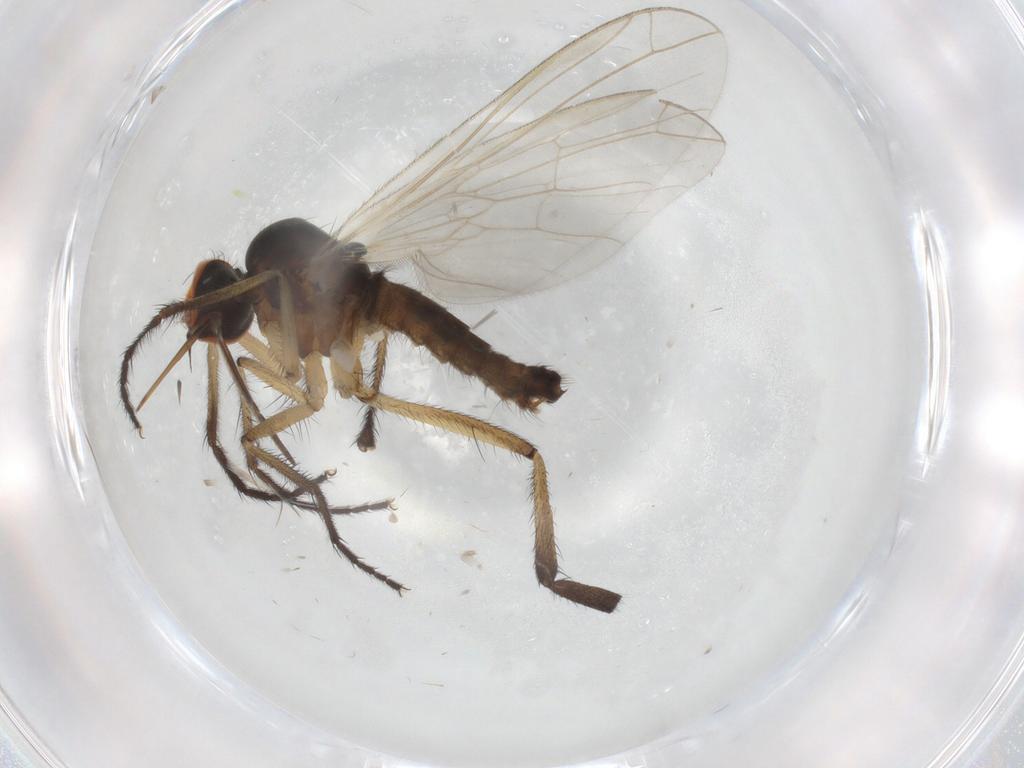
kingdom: Animalia
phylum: Arthropoda
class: Insecta
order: Diptera
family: Empididae
